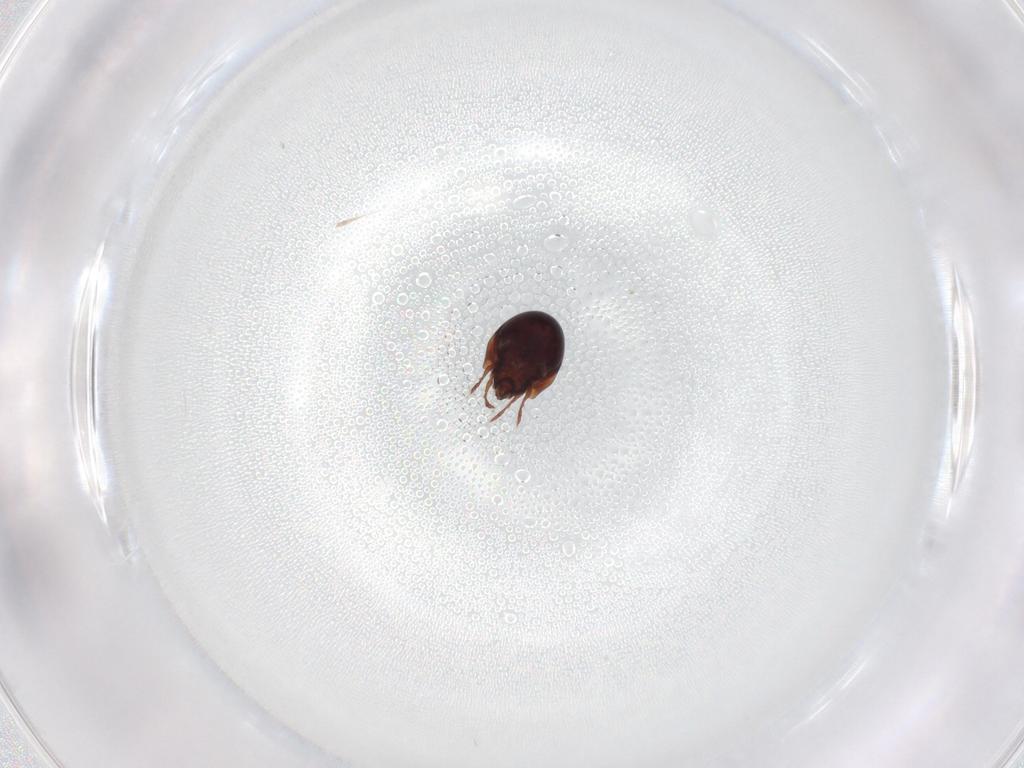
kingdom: Animalia
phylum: Arthropoda
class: Arachnida
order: Sarcoptiformes
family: Humerobatidae
